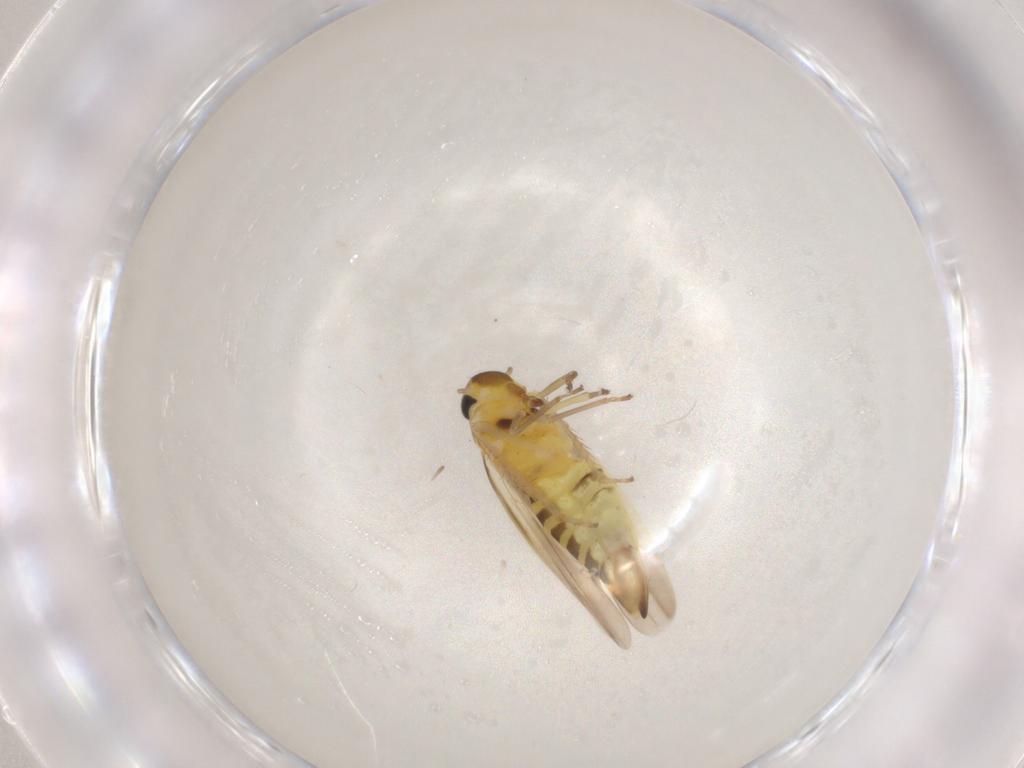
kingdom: Animalia
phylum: Arthropoda
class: Insecta
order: Hemiptera
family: Cicadellidae
